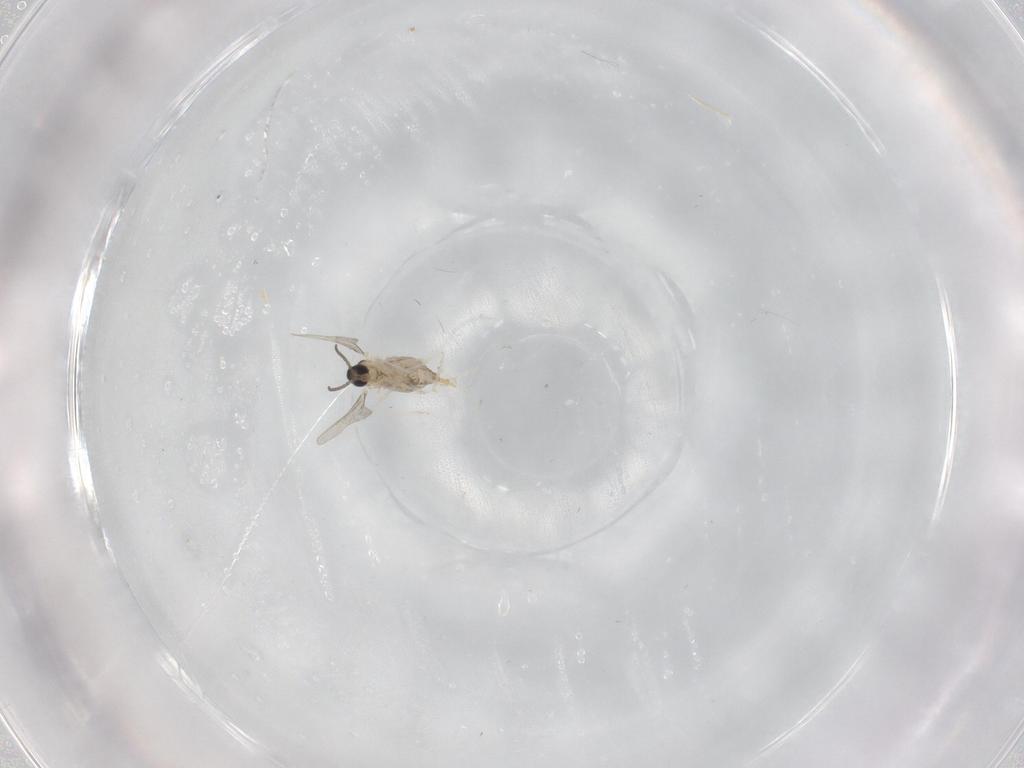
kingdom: Animalia
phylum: Arthropoda
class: Insecta
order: Diptera
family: Cecidomyiidae
